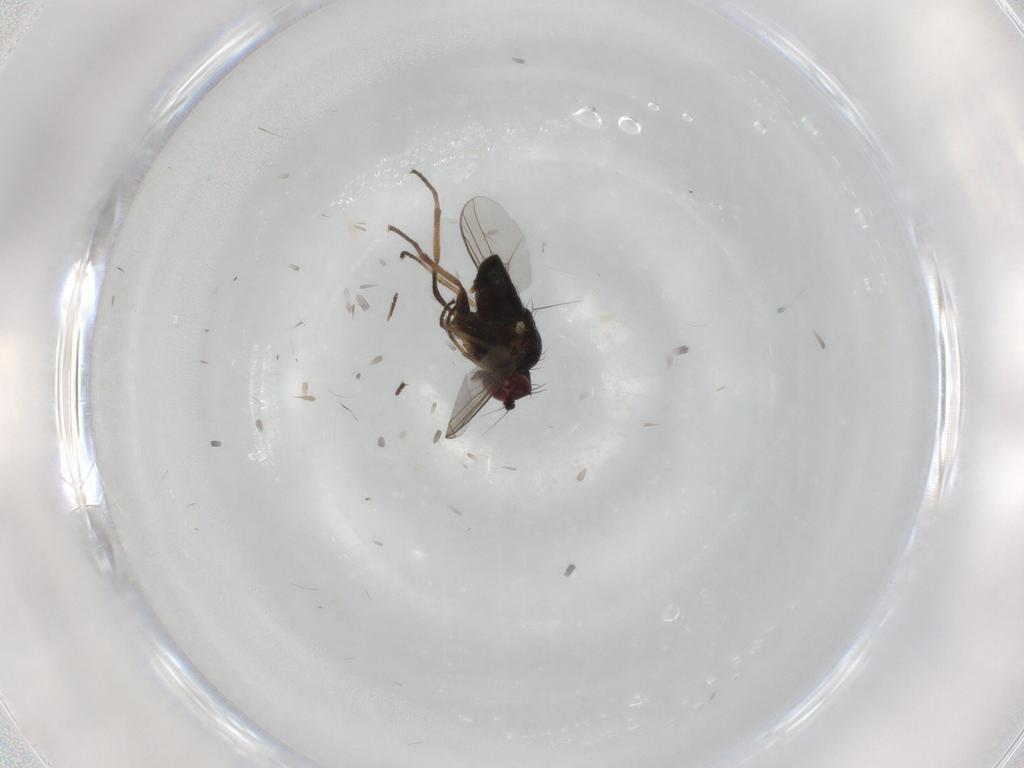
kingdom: Animalia
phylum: Arthropoda
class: Insecta
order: Diptera
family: Dolichopodidae
